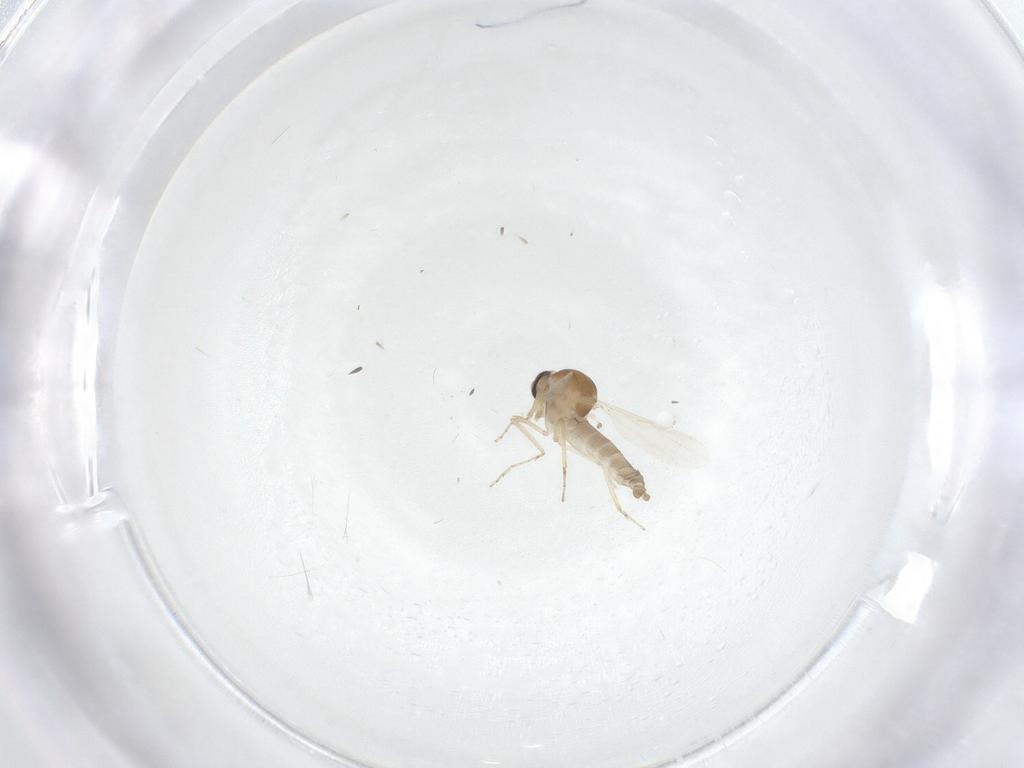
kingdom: Animalia
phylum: Arthropoda
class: Insecta
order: Diptera
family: Ceratopogonidae
